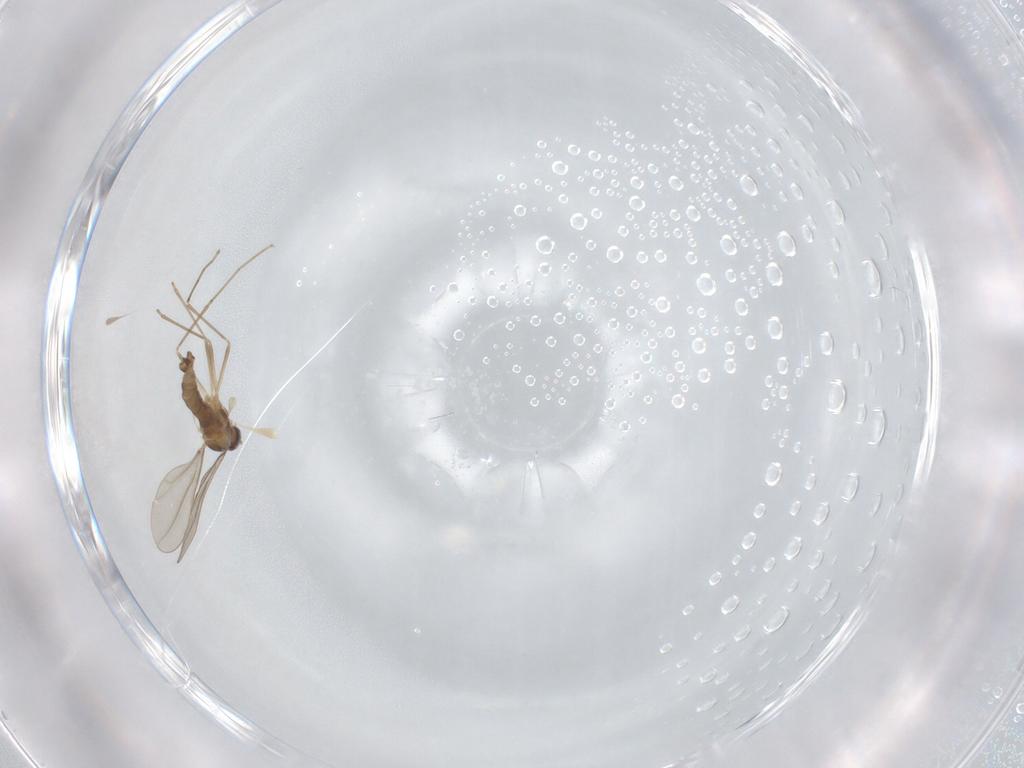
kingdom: Animalia
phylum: Arthropoda
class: Insecta
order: Diptera
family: Cecidomyiidae
